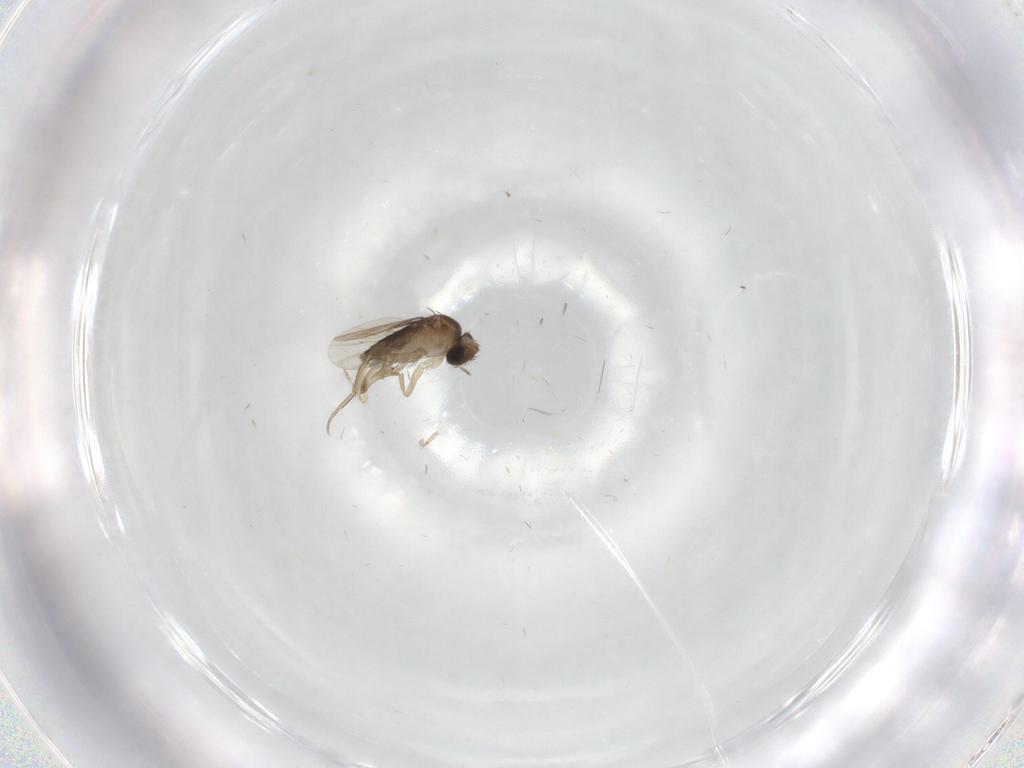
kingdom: Animalia
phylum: Arthropoda
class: Insecta
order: Diptera
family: Phoridae
